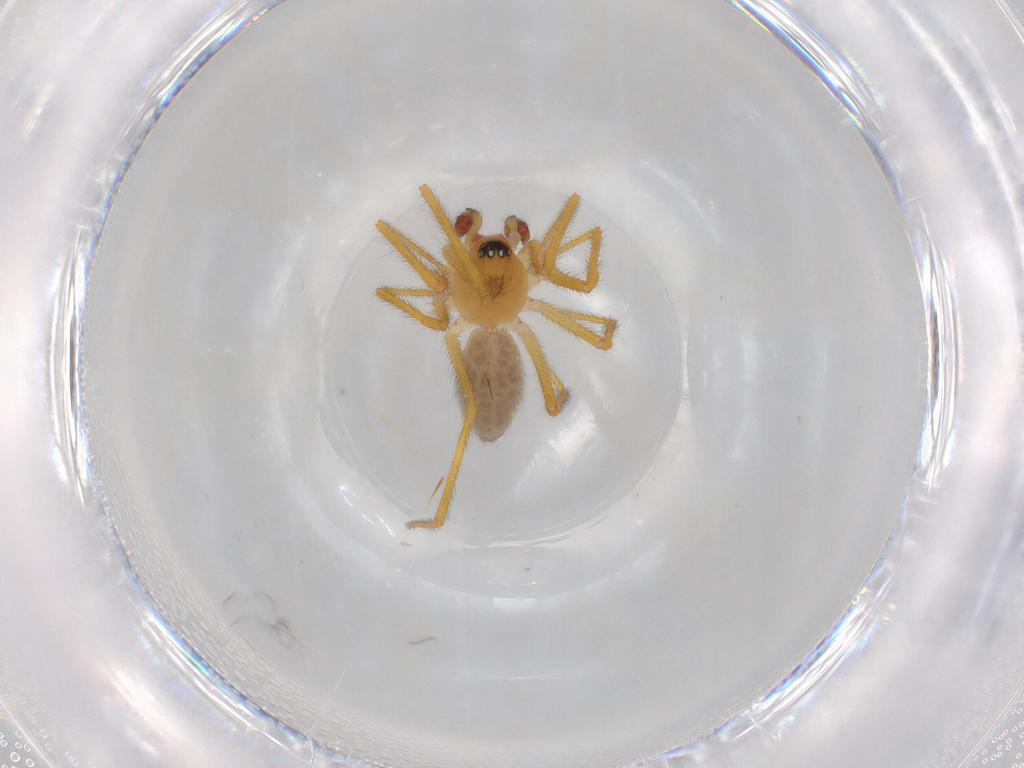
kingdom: Animalia
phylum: Arthropoda
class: Arachnida
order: Araneae
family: Linyphiidae
